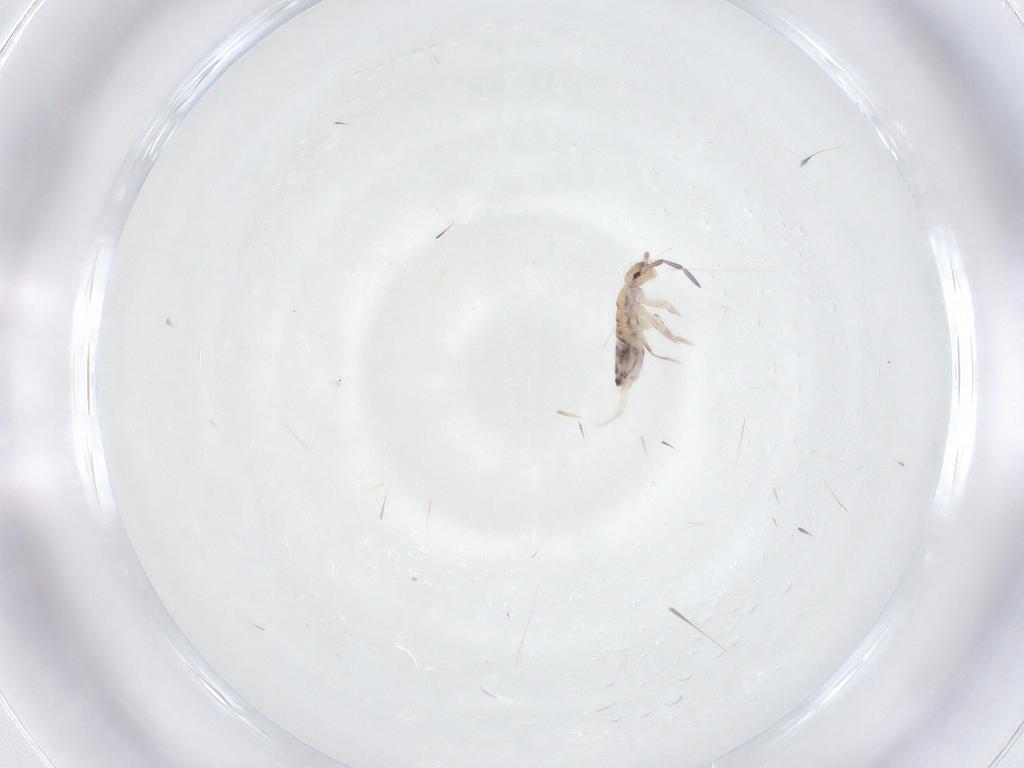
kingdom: Animalia
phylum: Arthropoda
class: Collembola
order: Entomobryomorpha
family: Entomobryidae
